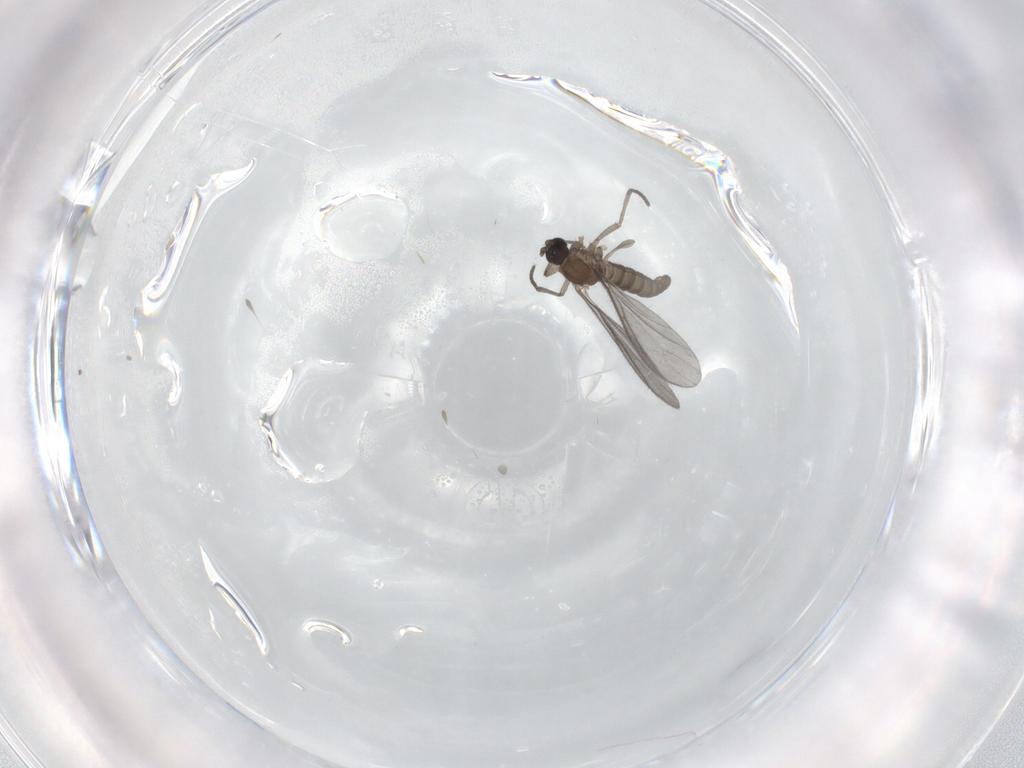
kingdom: Animalia
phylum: Arthropoda
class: Insecta
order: Diptera
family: Sciaridae
